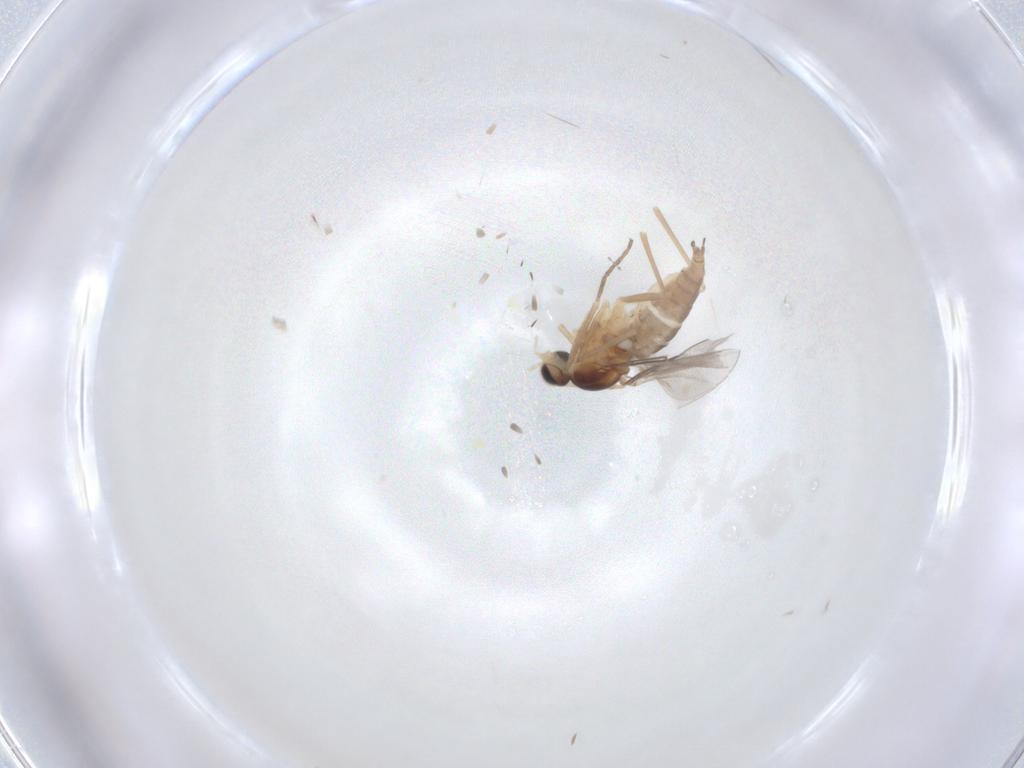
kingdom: Animalia
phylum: Arthropoda
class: Insecta
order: Diptera
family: Cecidomyiidae
